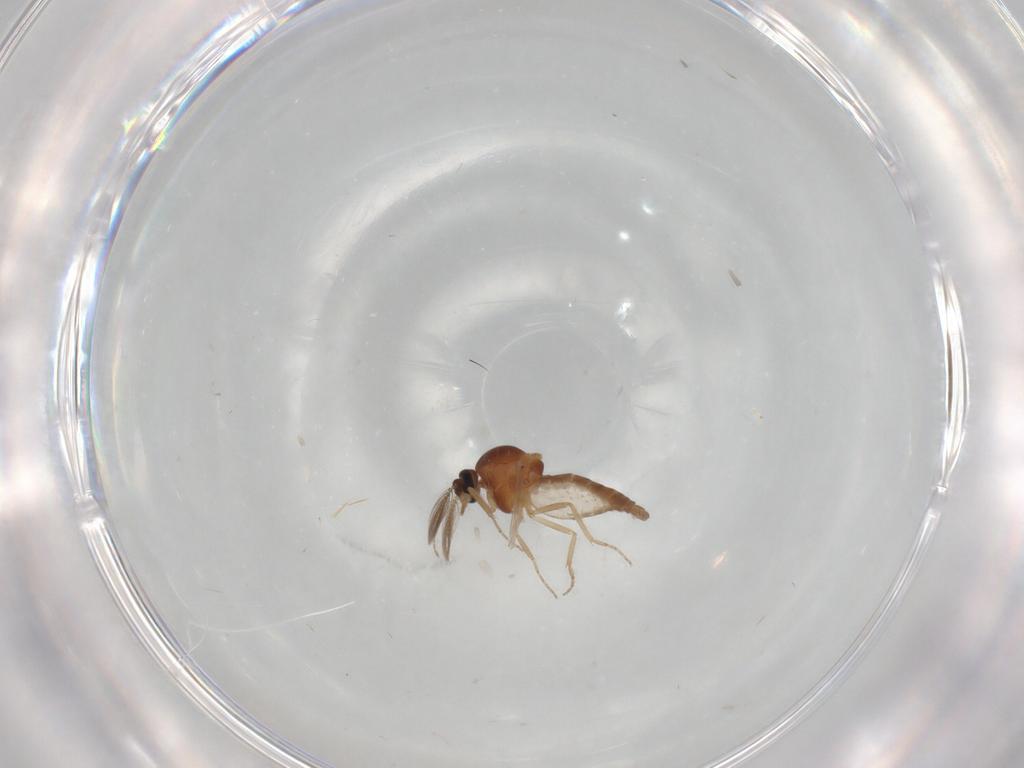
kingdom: Animalia
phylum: Arthropoda
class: Insecta
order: Diptera
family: Ceratopogonidae
